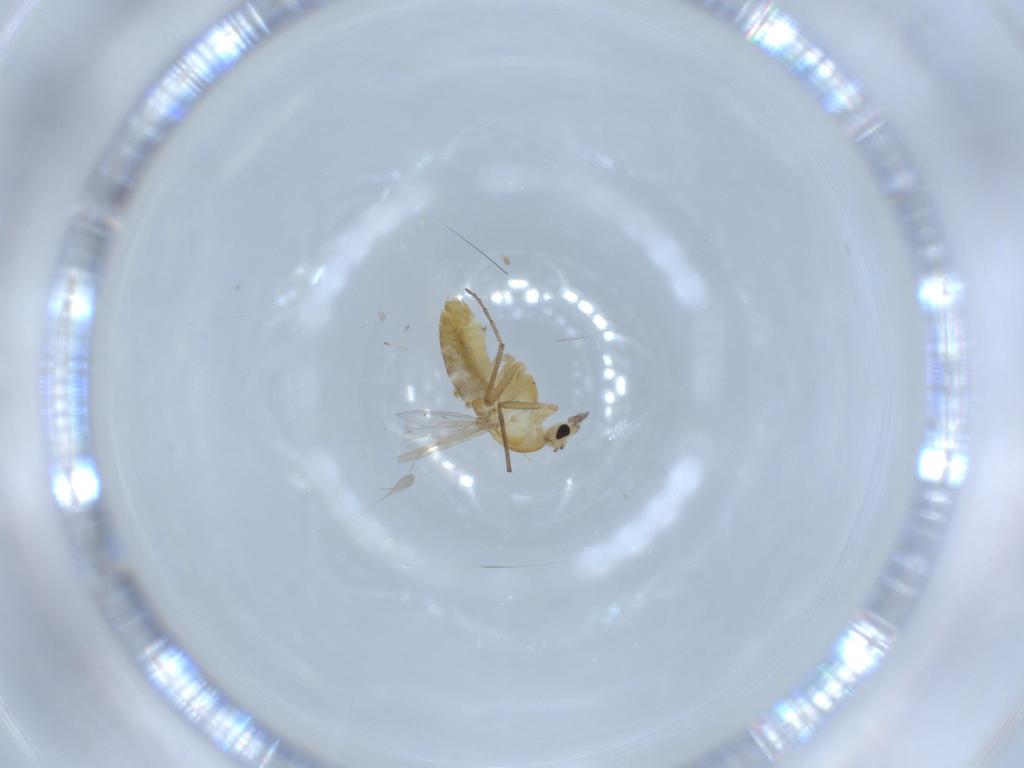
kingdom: Animalia
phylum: Arthropoda
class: Insecta
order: Diptera
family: Chironomidae
